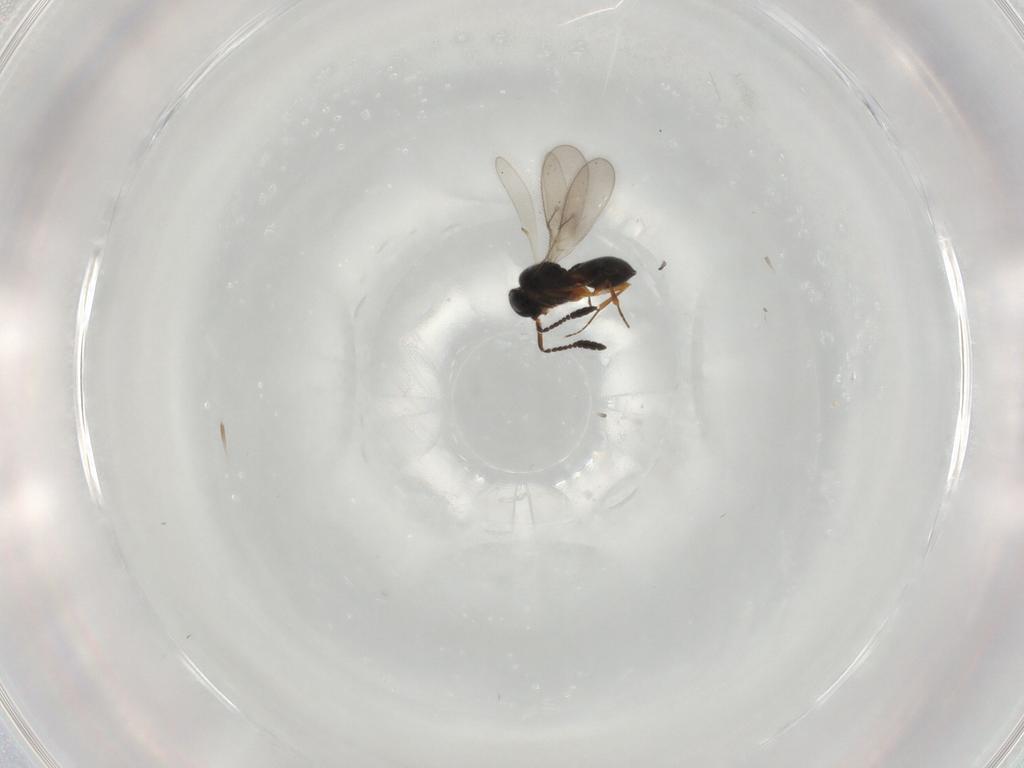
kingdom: Animalia
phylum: Arthropoda
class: Insecta
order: Hymenoptera
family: Scelionidae
